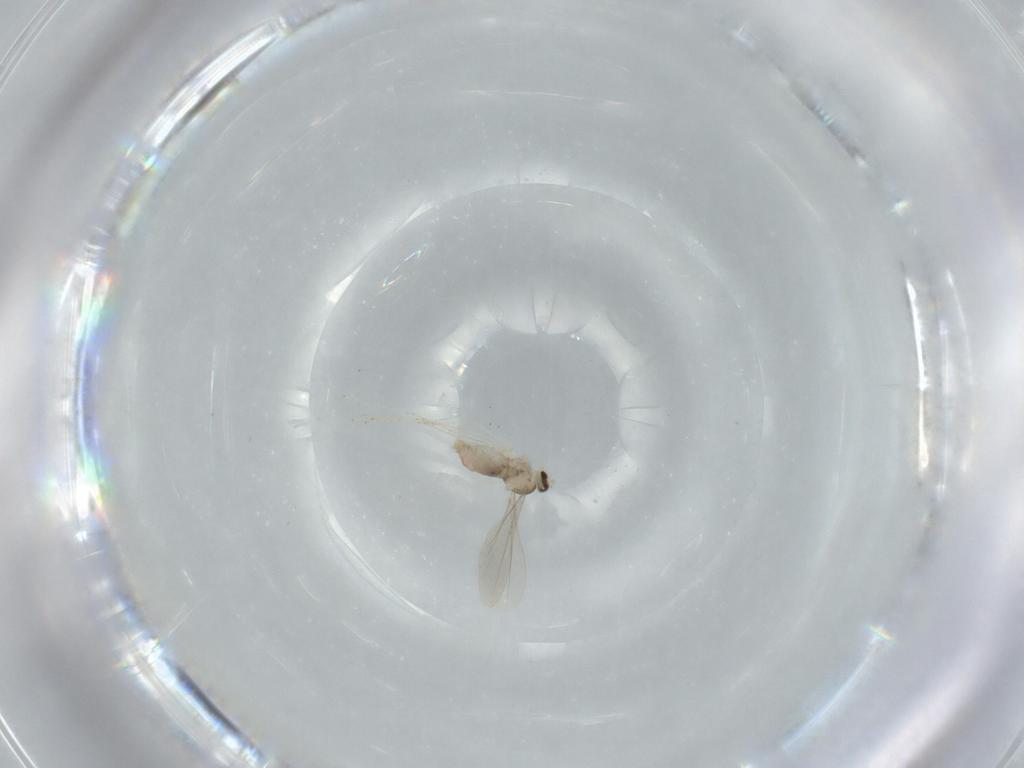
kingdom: Animalia
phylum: Arthropoda
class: Insecta
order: Diptera
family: Cecidomyiidae
